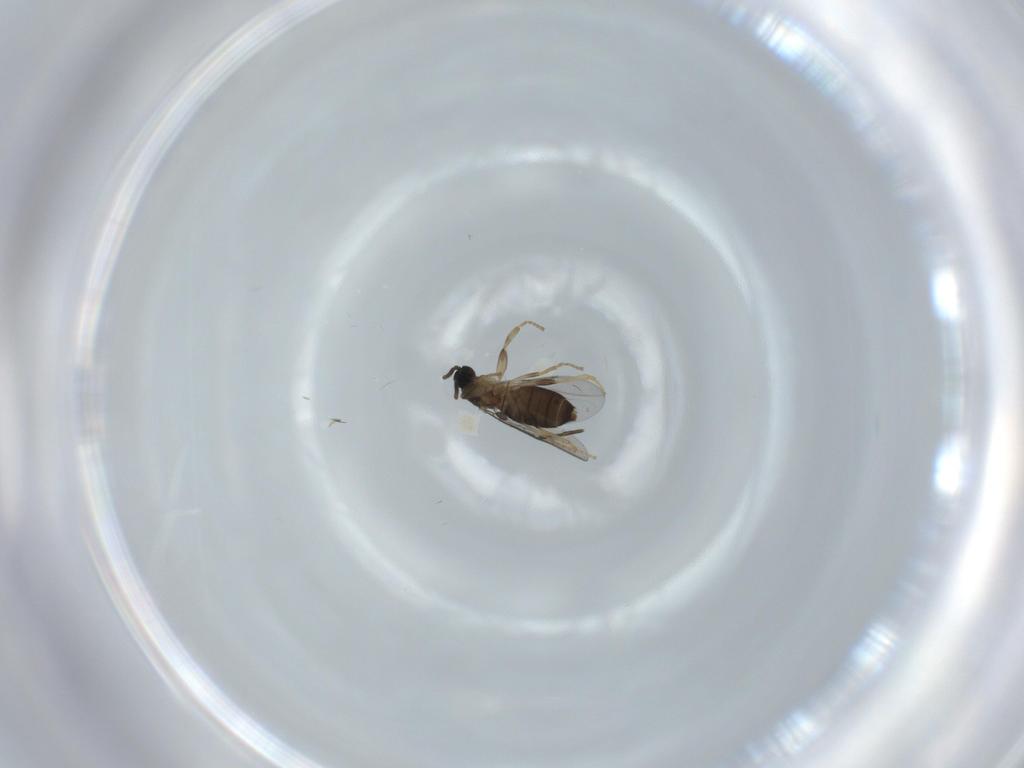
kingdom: Animalia
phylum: Arthropoda
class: Insecta
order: Diptera
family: Scatopsidae
